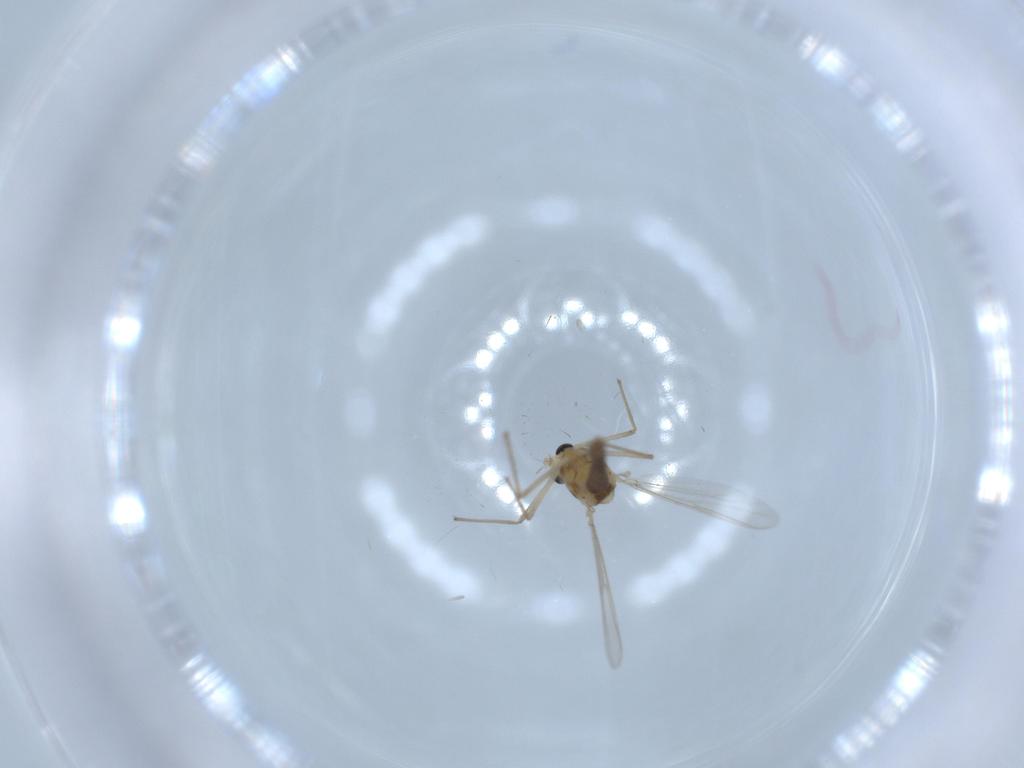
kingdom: Animalia
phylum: Arthropoda
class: Insecta
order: Diptera
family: Chironomidae
